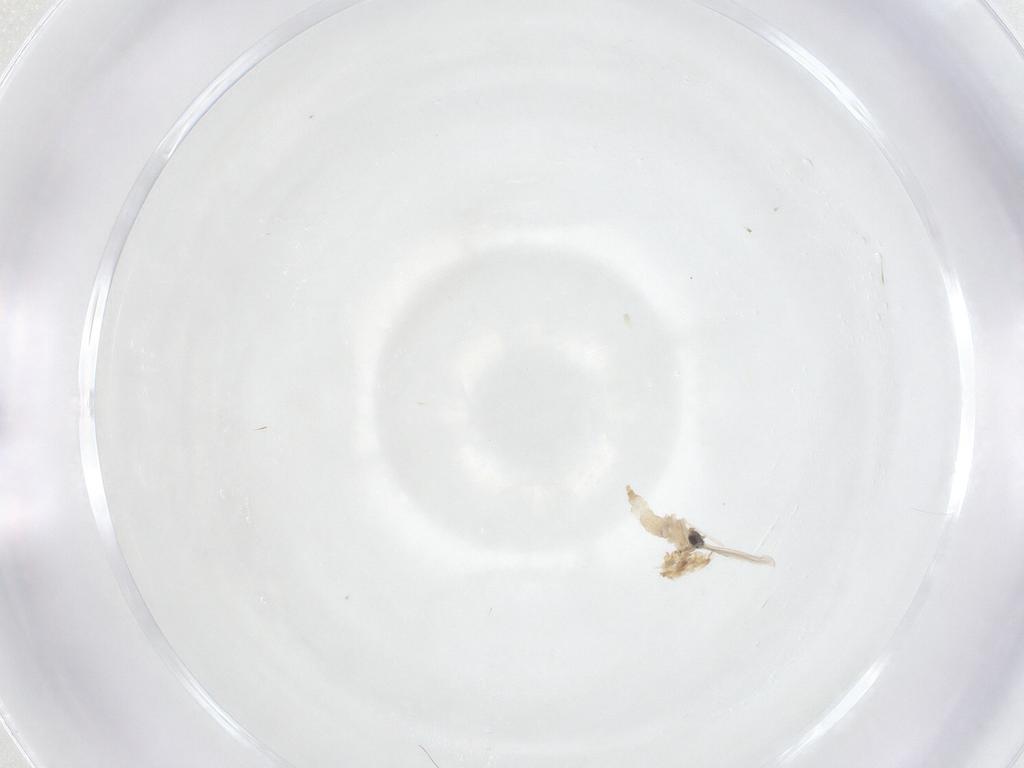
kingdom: Animalia
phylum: Arthropoda
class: Insecta
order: Diptera
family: Cecidomyiidae
